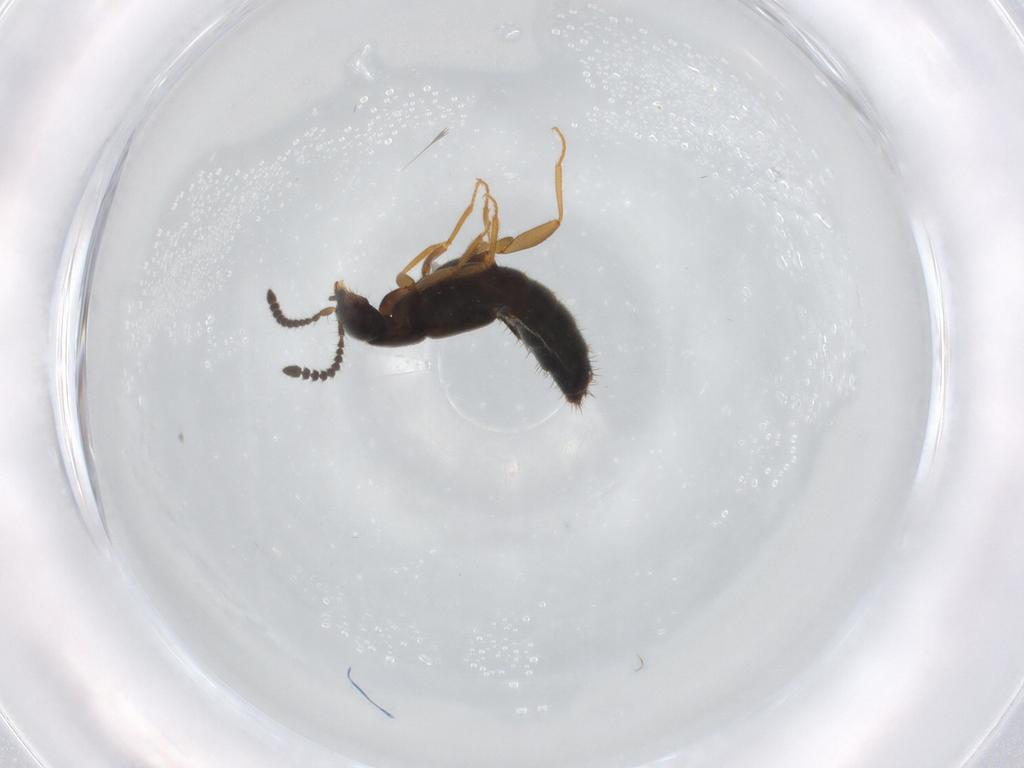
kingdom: Animalia
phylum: Arthropoda
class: Insecta
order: Coleoptera
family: Staphylinidae
